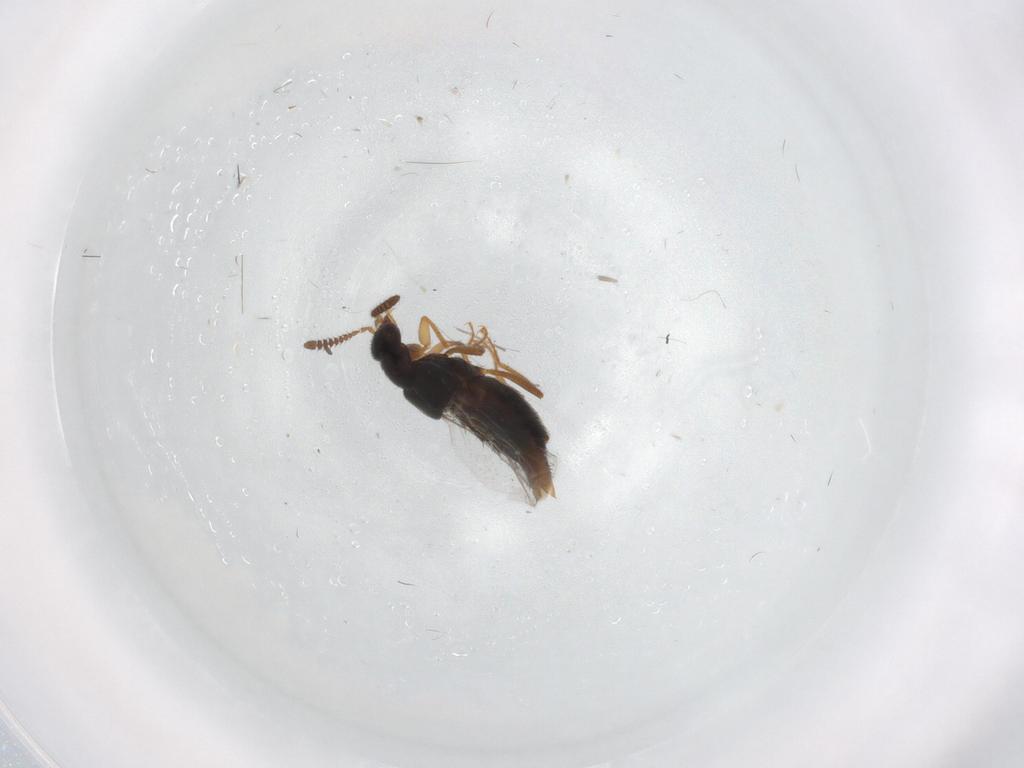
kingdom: Animalia
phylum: Arthropoda
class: Insecta
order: Coleoptera
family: Staphylinidae
